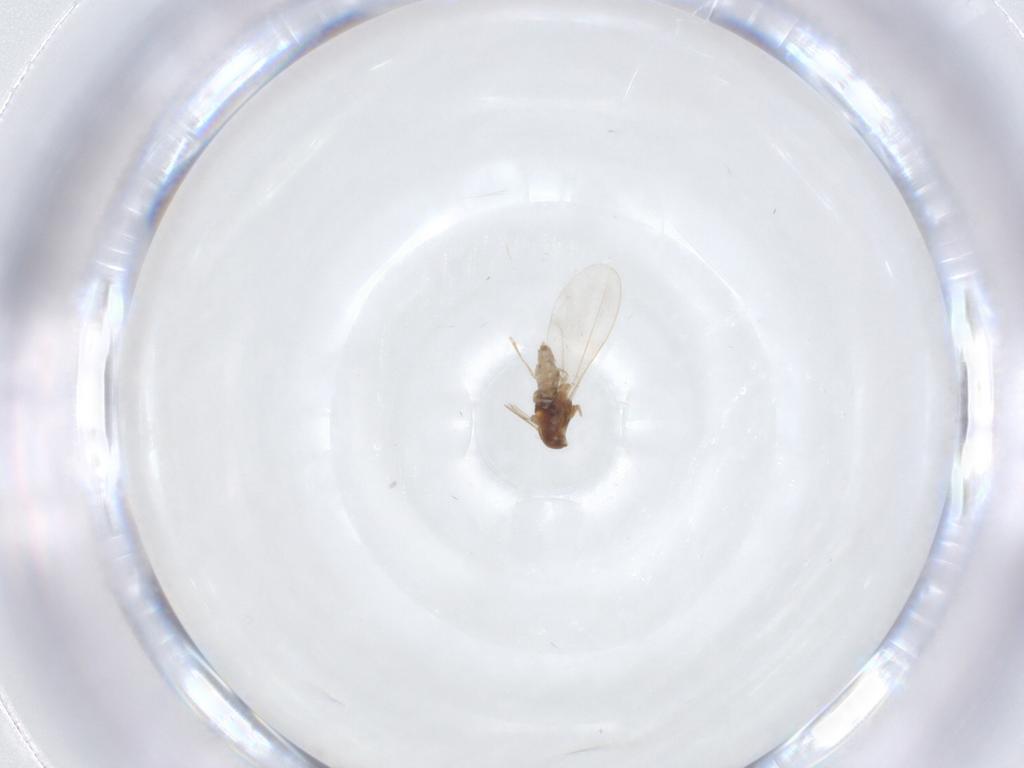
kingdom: Animalia
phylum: Arthropoda
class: Insecta
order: Diptera
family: Cecidomyiidae
